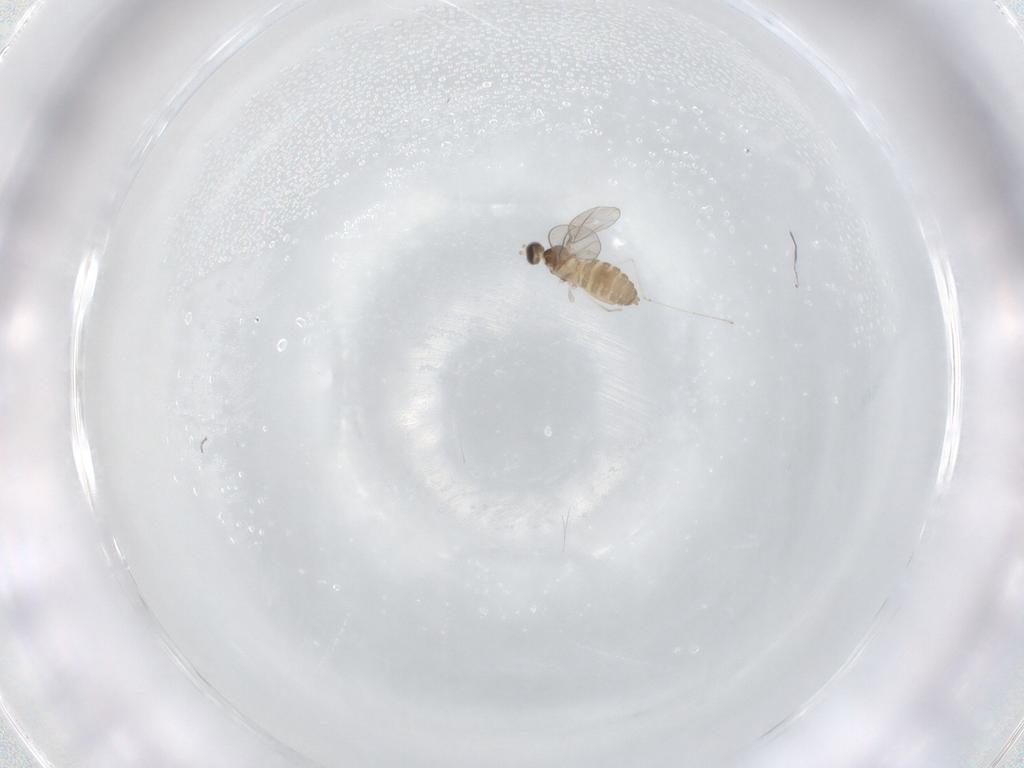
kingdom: Animalia
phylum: Arthropoda
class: Insecta
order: Diptera
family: Cecidomyiidae
